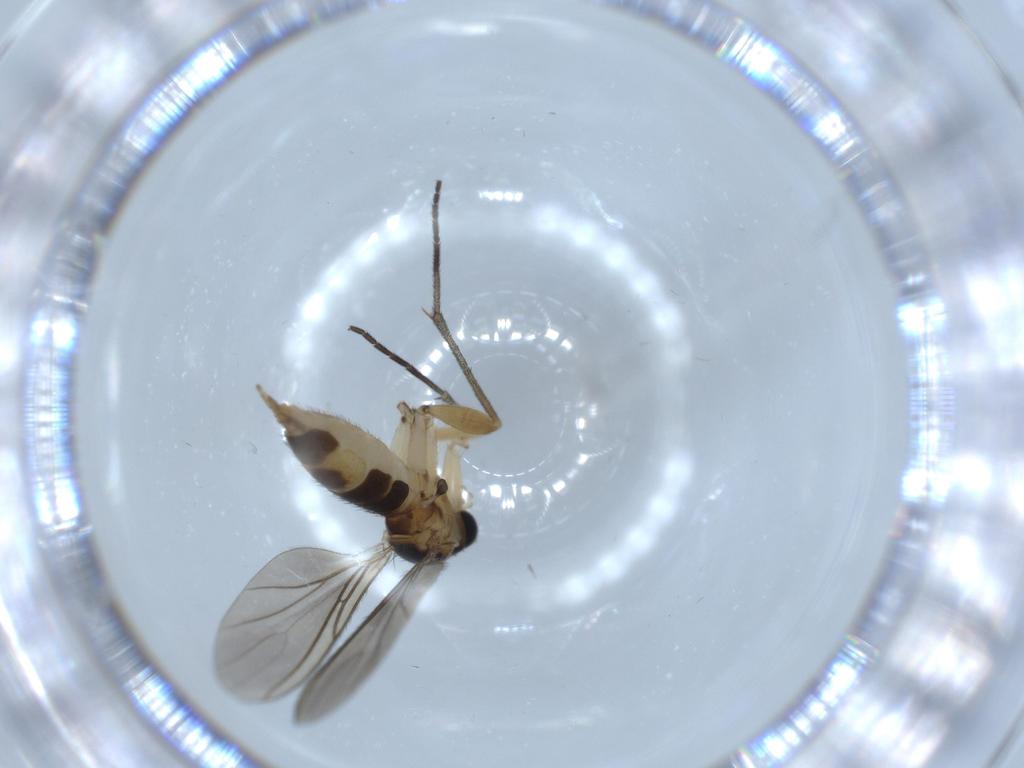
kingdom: Animalia
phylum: Arthropoda
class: Insecta
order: Diptera
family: Sciaridae
